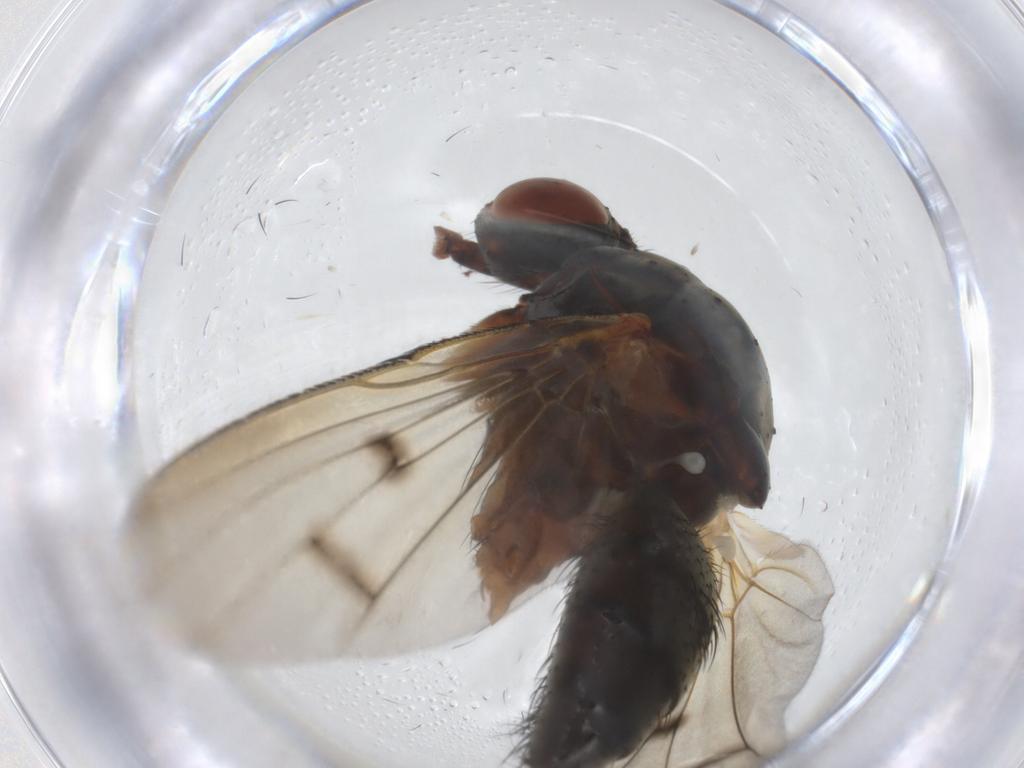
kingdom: Animalia
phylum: Arthropoda
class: Insecta
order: Diptera
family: Anthomyiidae
